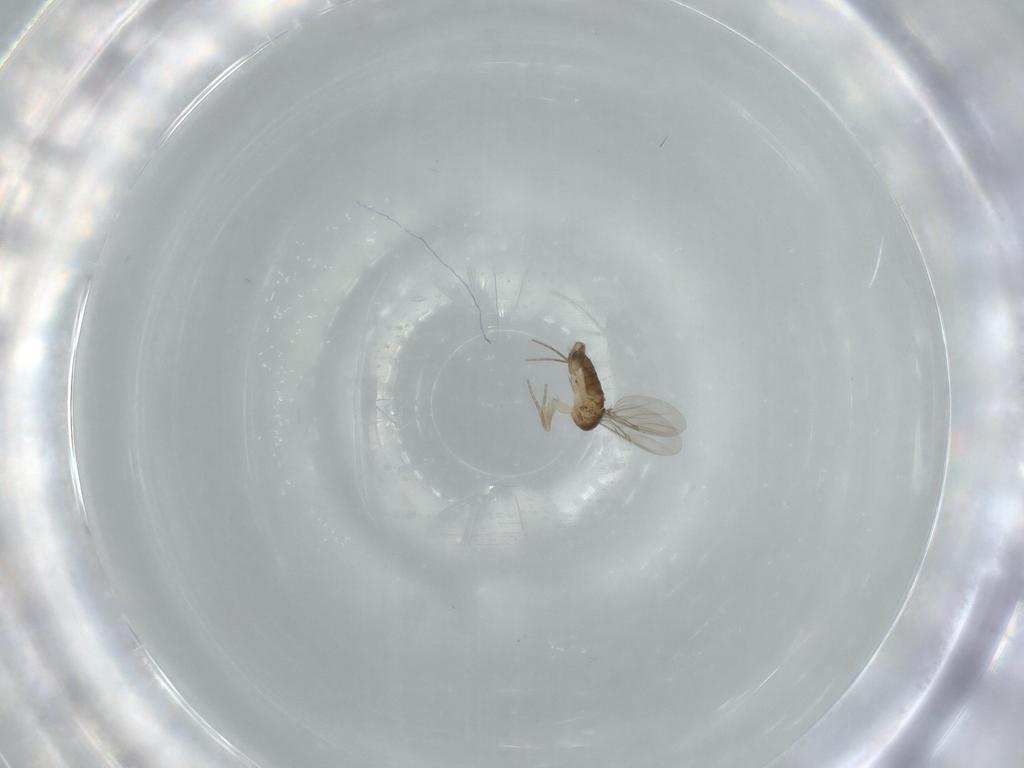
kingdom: Animalia
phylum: Arthropoda
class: Insecta
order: Diptera
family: Phoridae
